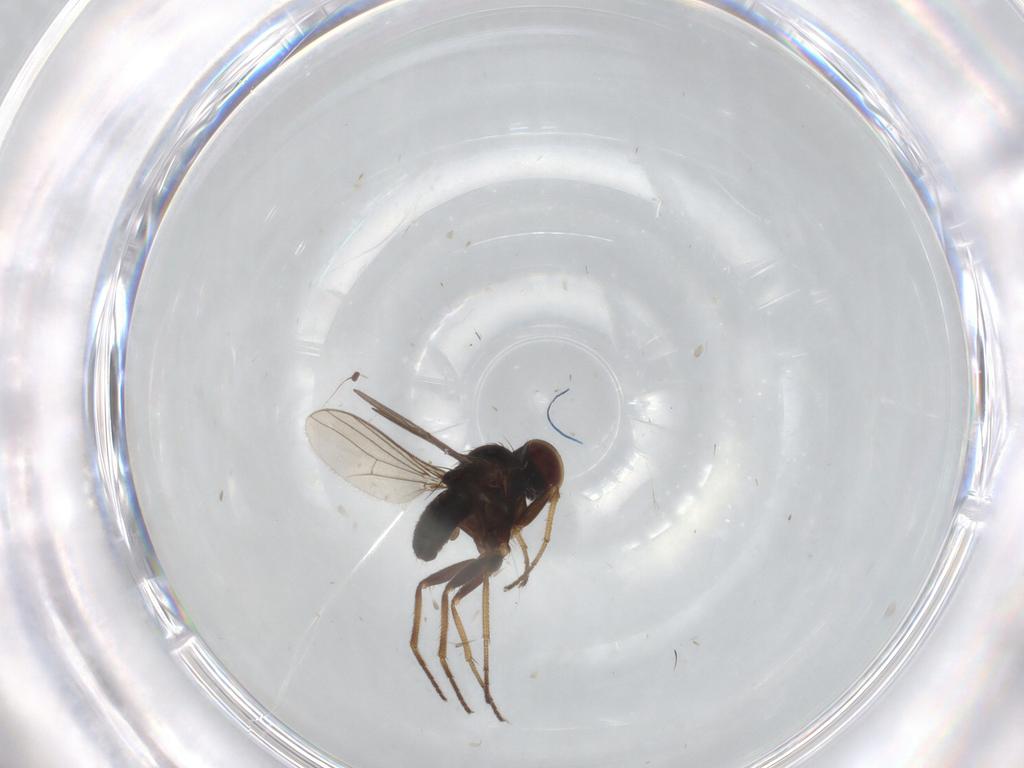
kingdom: Animalia
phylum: Arthropoda
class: Insecta
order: Diptera
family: Dolichopodidae
